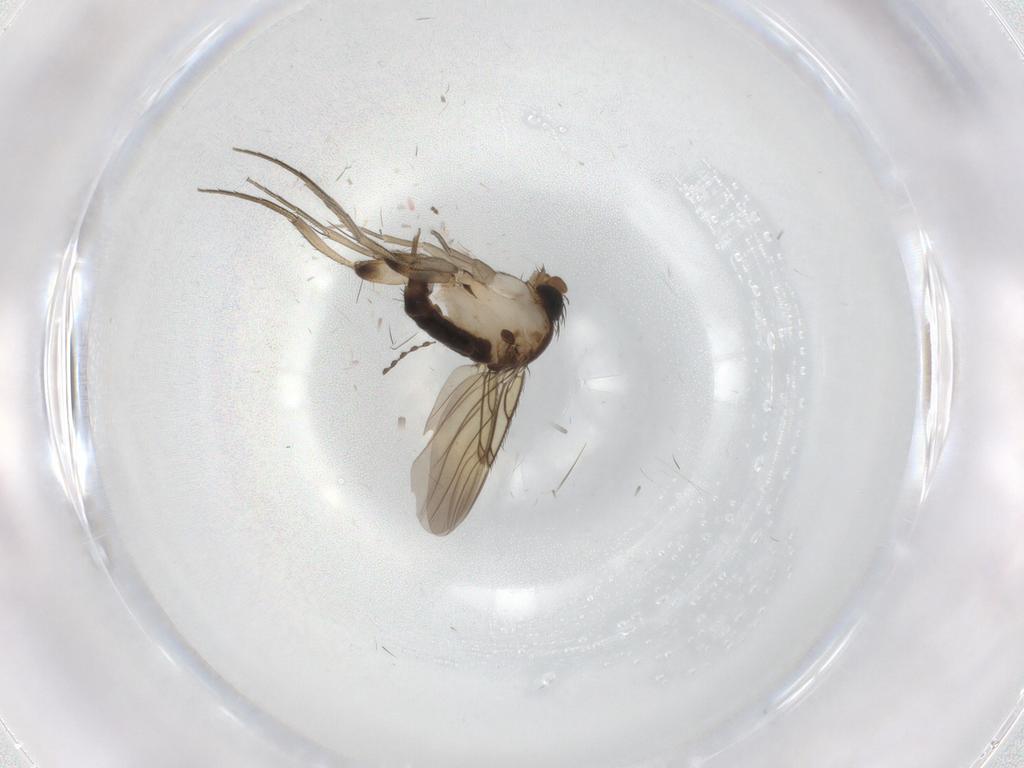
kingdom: Animalia
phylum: Arthropoda
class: Insecta
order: Diptera
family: Phoridae
